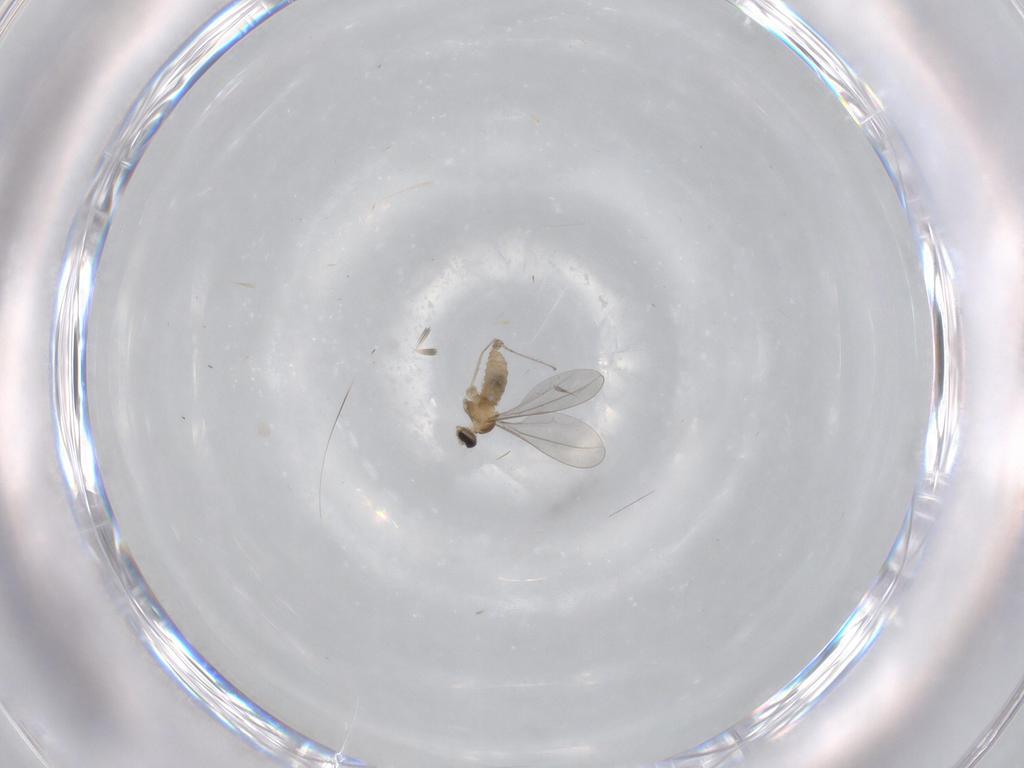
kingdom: Animalia
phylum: Arthropoda
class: Insecta
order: Diptera
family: Cecidomyiidae
